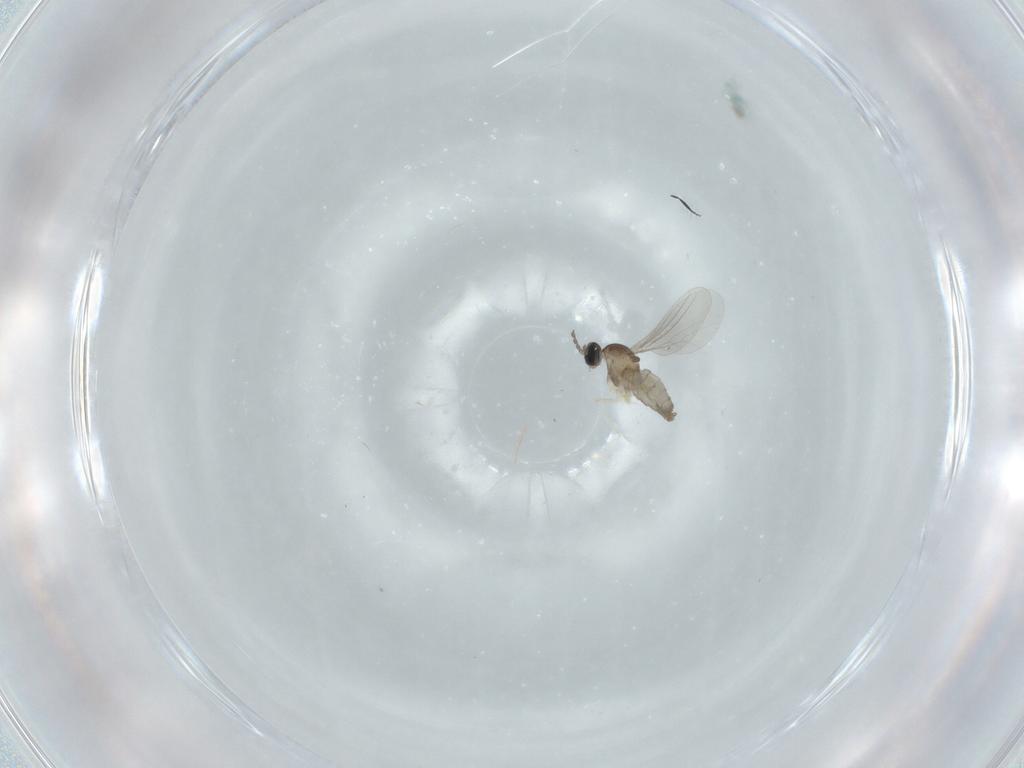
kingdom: Animalia
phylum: Arthropoda
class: Insecta
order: Diptera
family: Cecidomyiidae
